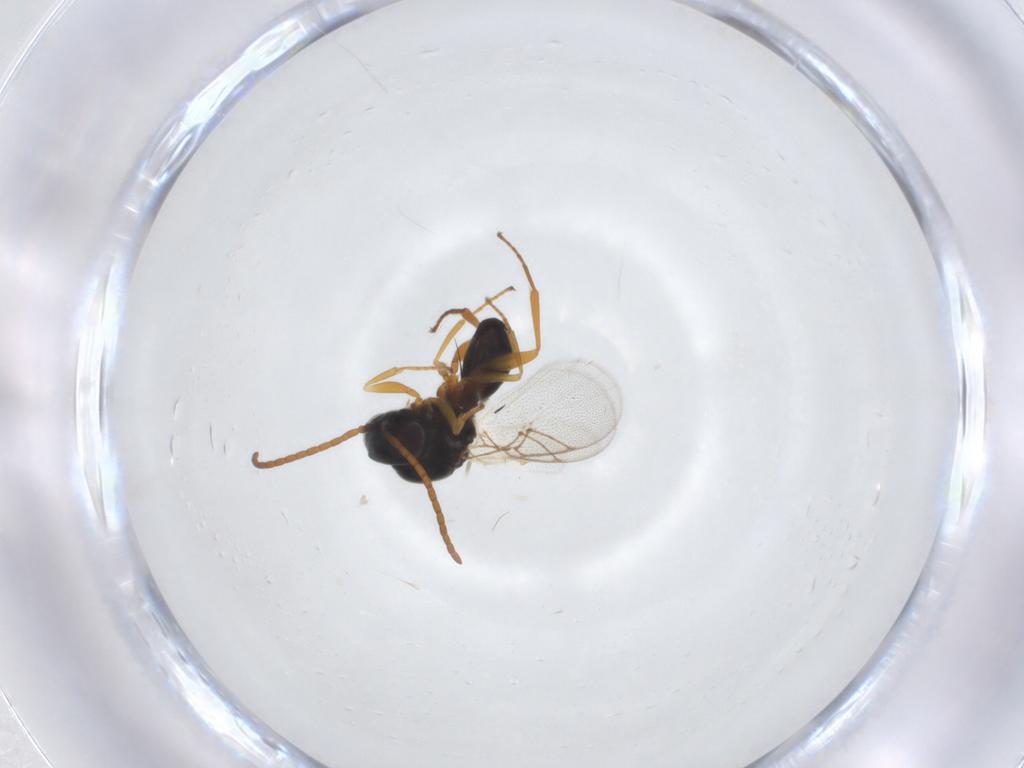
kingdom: Animalia
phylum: Arthropoda
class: Insecta
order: Hymenoptera
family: Figitidae
